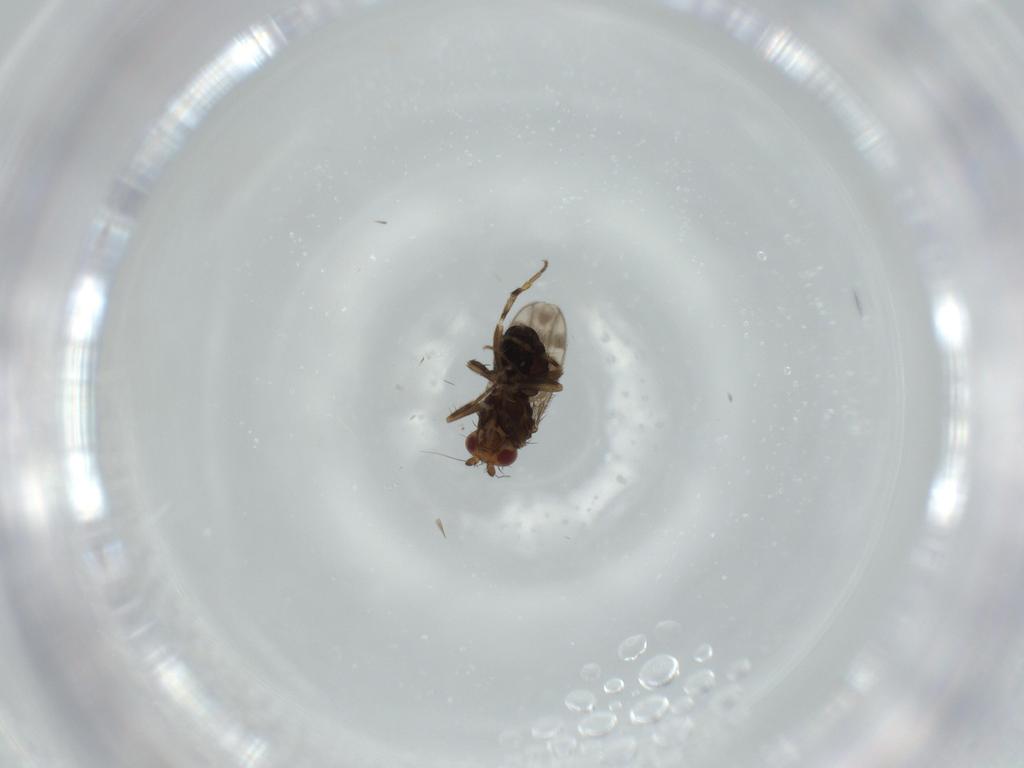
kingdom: Animalia
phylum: Arthropoda
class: Insecta
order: Diptera
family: Sphaeroceridae
